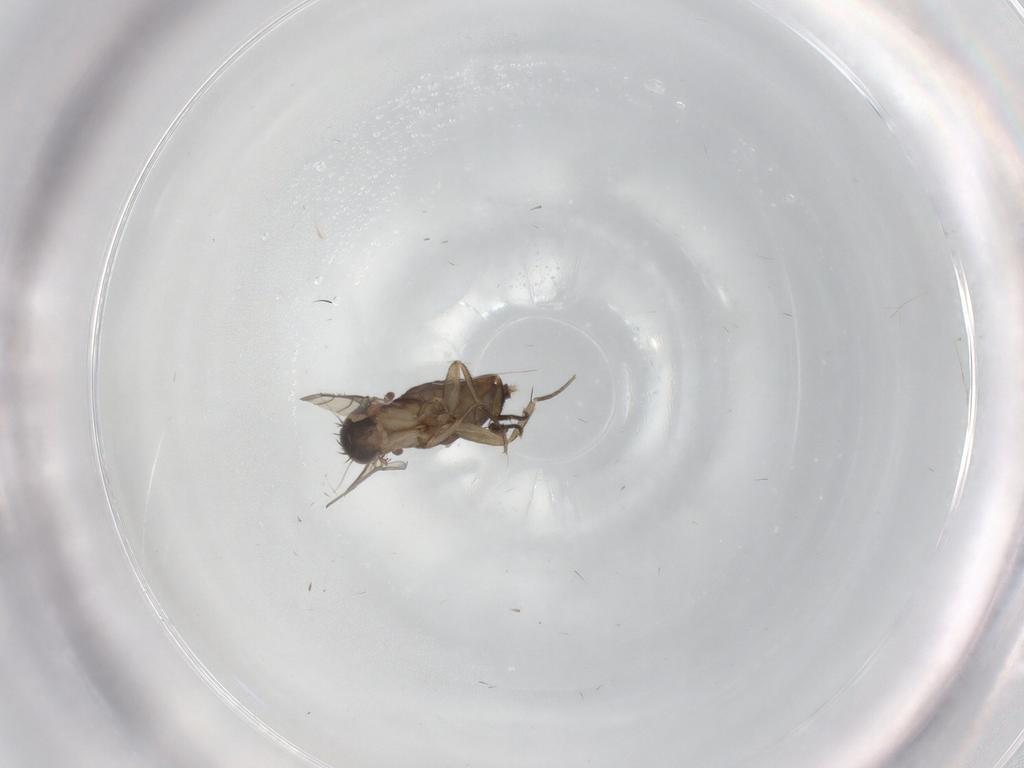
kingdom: Animalia
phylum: Arthropoda
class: Insecta
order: Diptera
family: Phoridae
